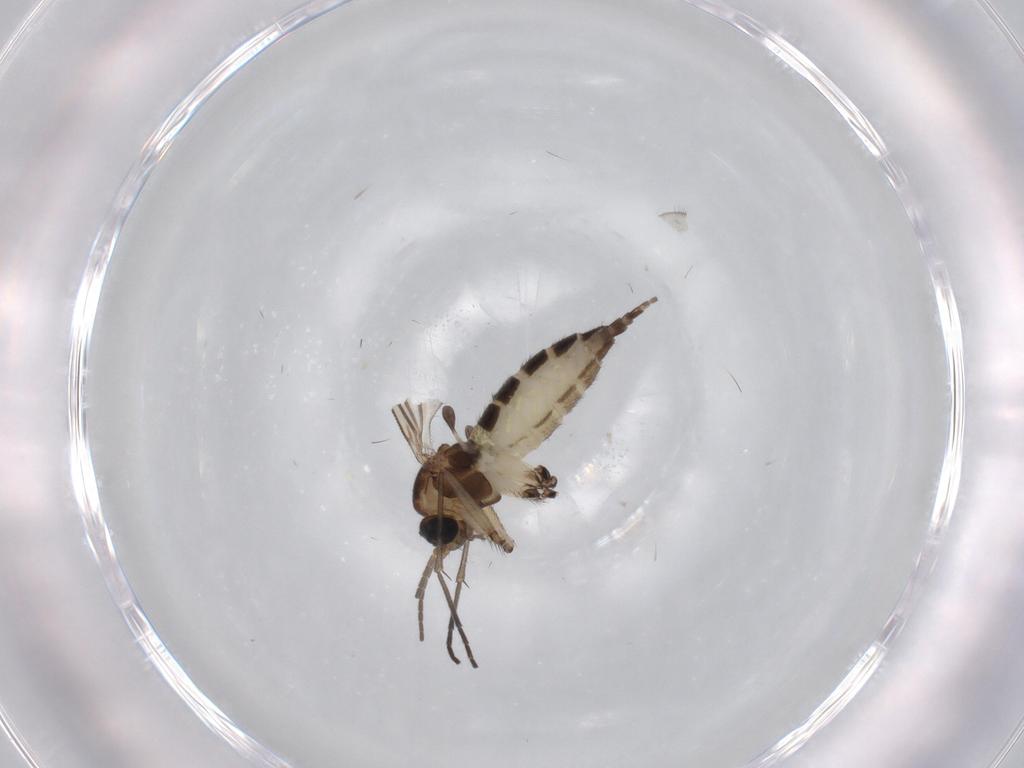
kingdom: Animalia
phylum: Arthropoda
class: Insecta
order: Diptera
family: Sciaridae
